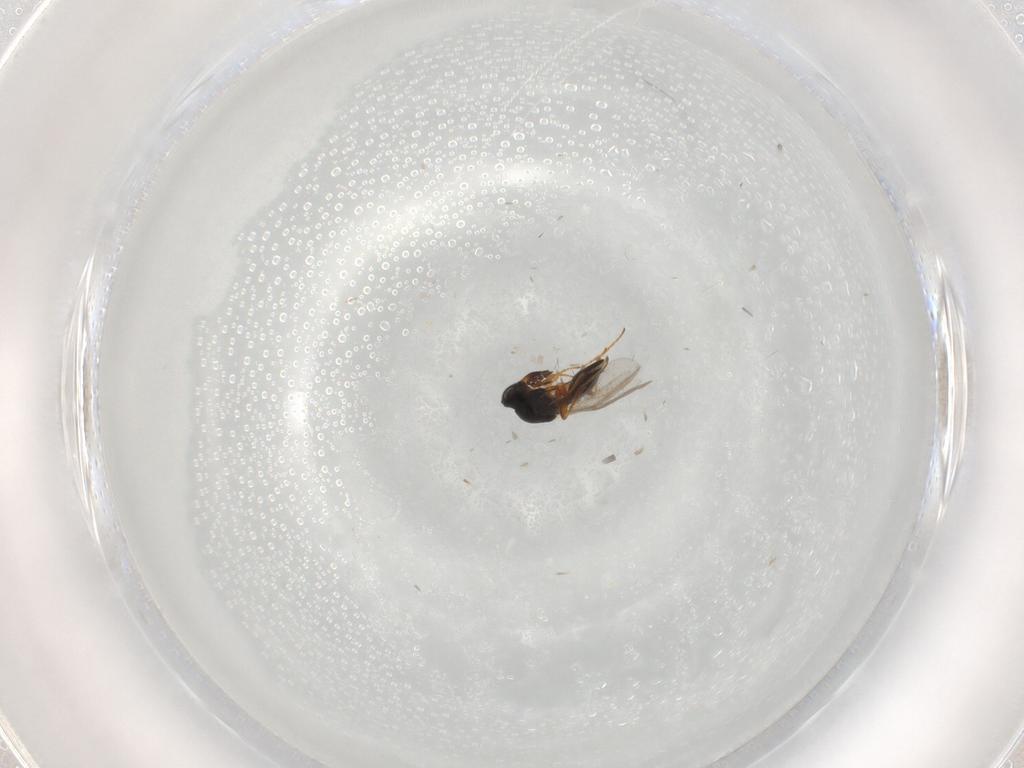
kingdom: Animalia
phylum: Arthropoda
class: Insecta
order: Hymenoptera
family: Platygastridae
